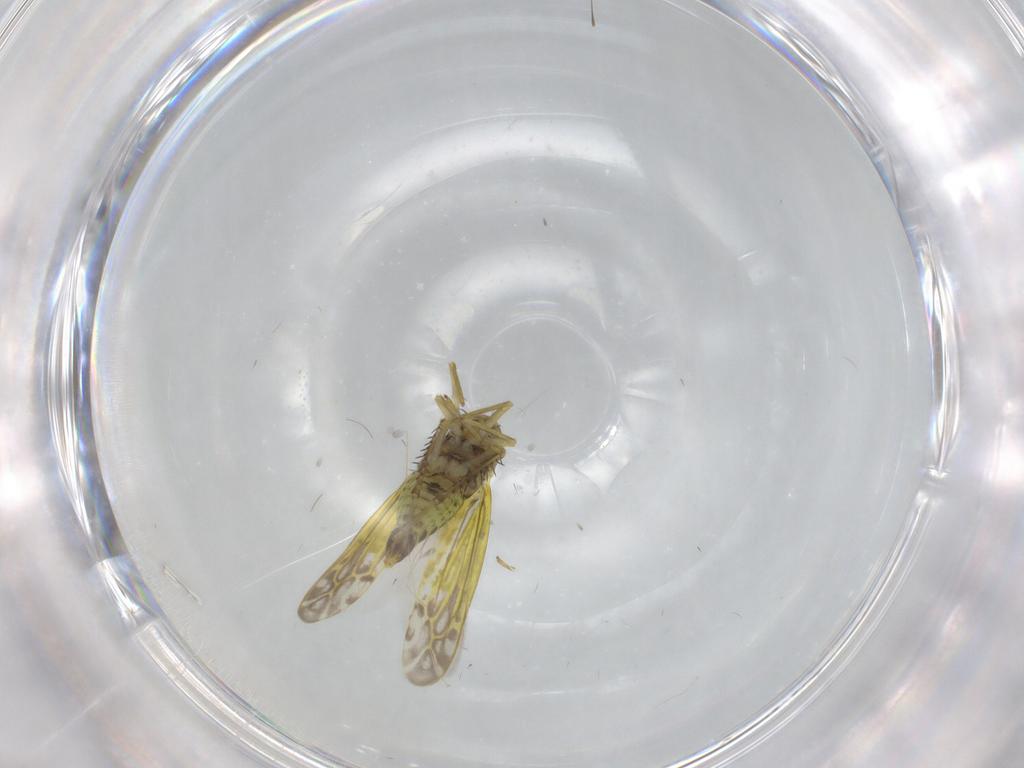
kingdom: Animalia
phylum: Arthropoda
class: Insecta
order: Hemiptera
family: Cicadellidae
